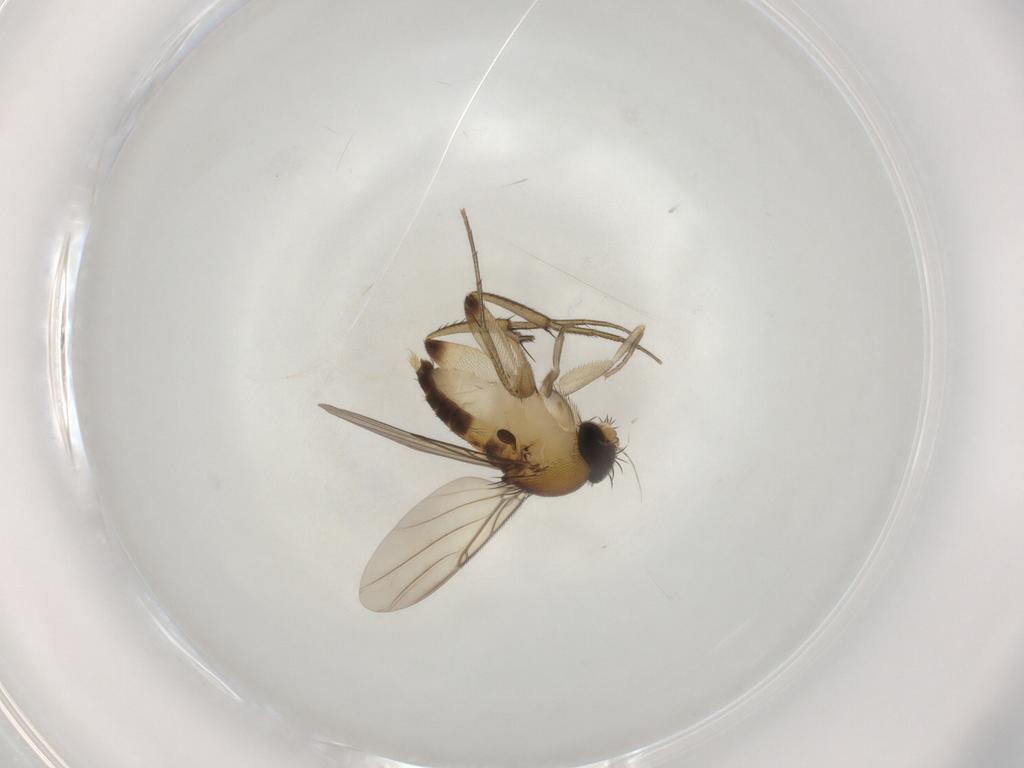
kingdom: Animalia
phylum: Arthropoda
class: Insecta
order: Diptera
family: Phoridae
